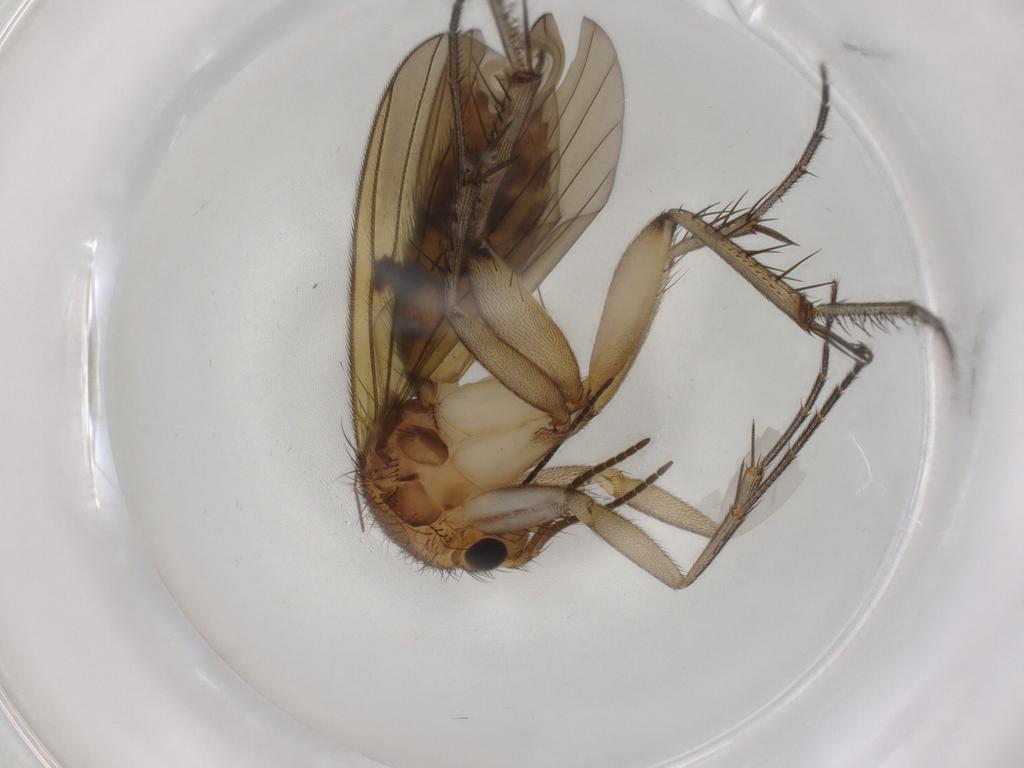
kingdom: Animalia
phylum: Arthropoda
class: Insecta
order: Diptera
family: Mycetophilidae
